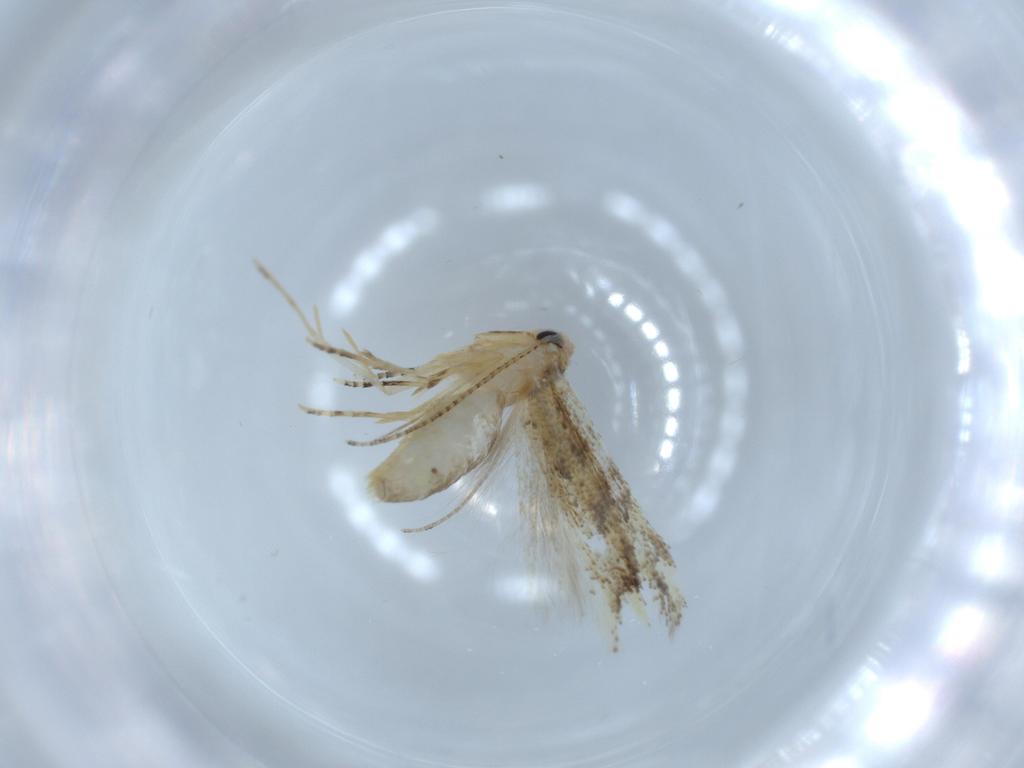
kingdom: Animalia
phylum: Arthropoda
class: Insecta
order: Lepidoptera
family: Bucculatricidae
